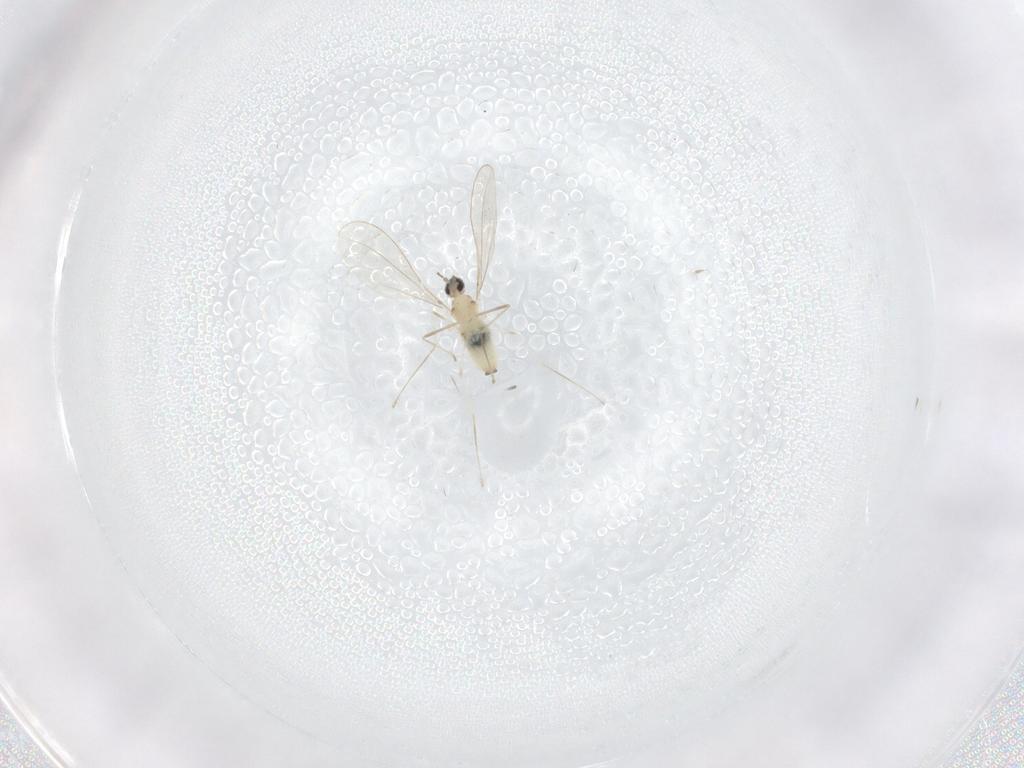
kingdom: Animalia
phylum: Arthropoda
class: Insecta
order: Diptera
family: Cecidomyiidae
